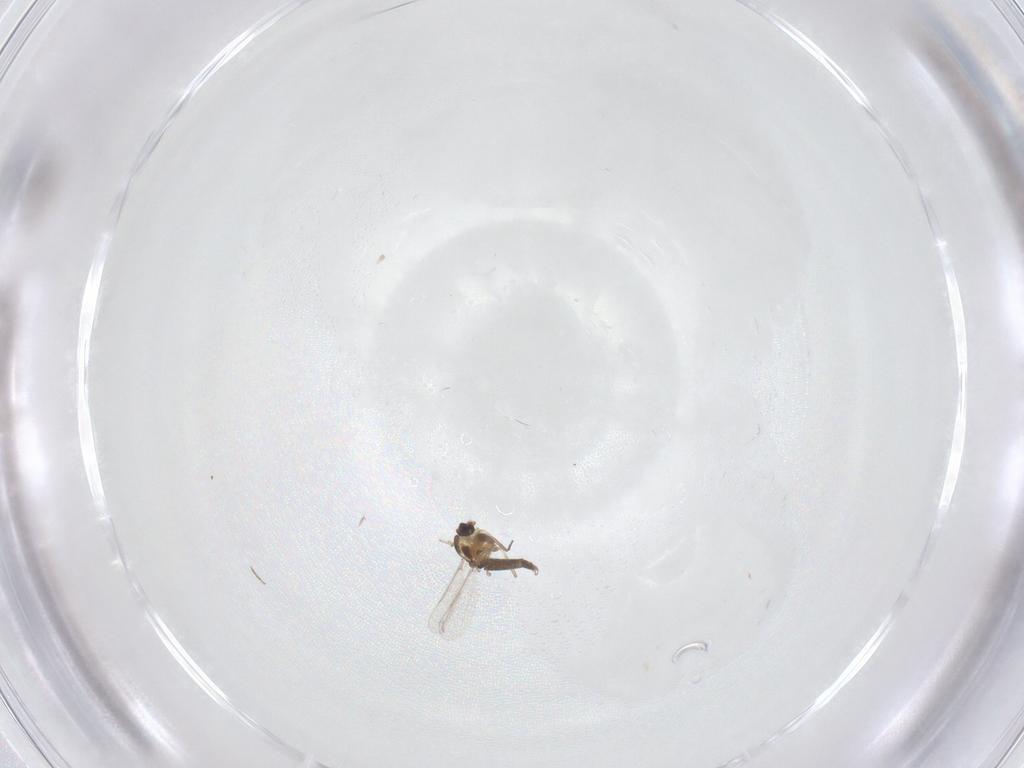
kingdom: Animalia
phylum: Arthropoda
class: Insecta
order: Diptera
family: Chironomidae
